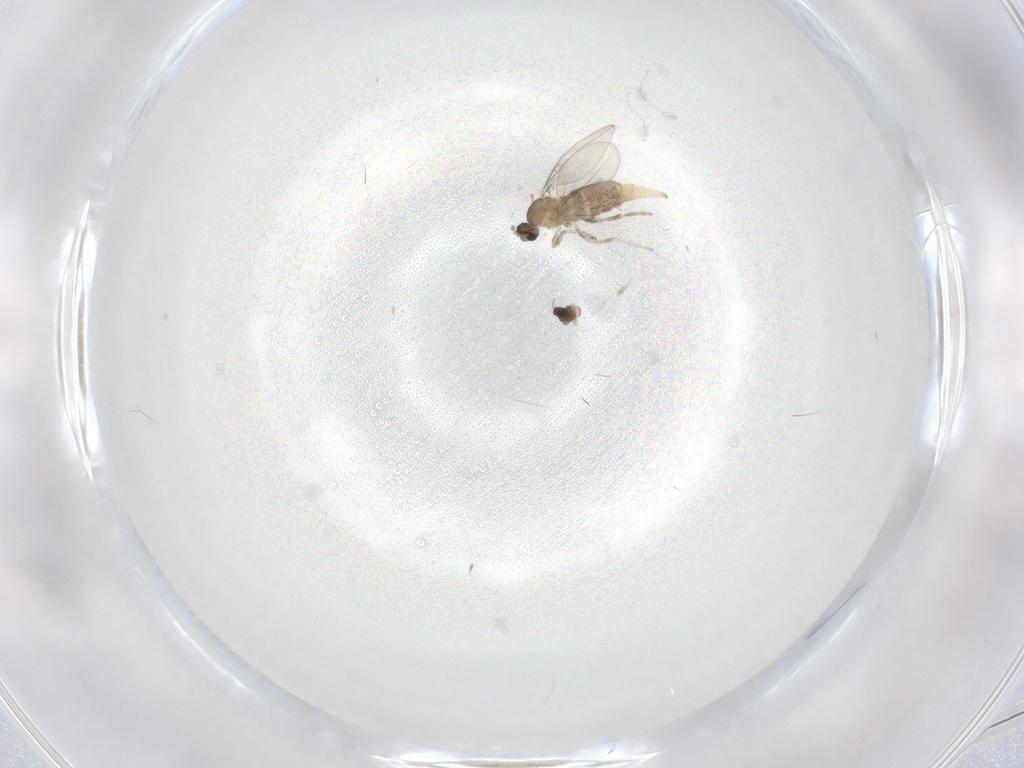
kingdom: Animalia
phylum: Arthropoda
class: Insecta
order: Diptera
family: Cecidomyiidae
